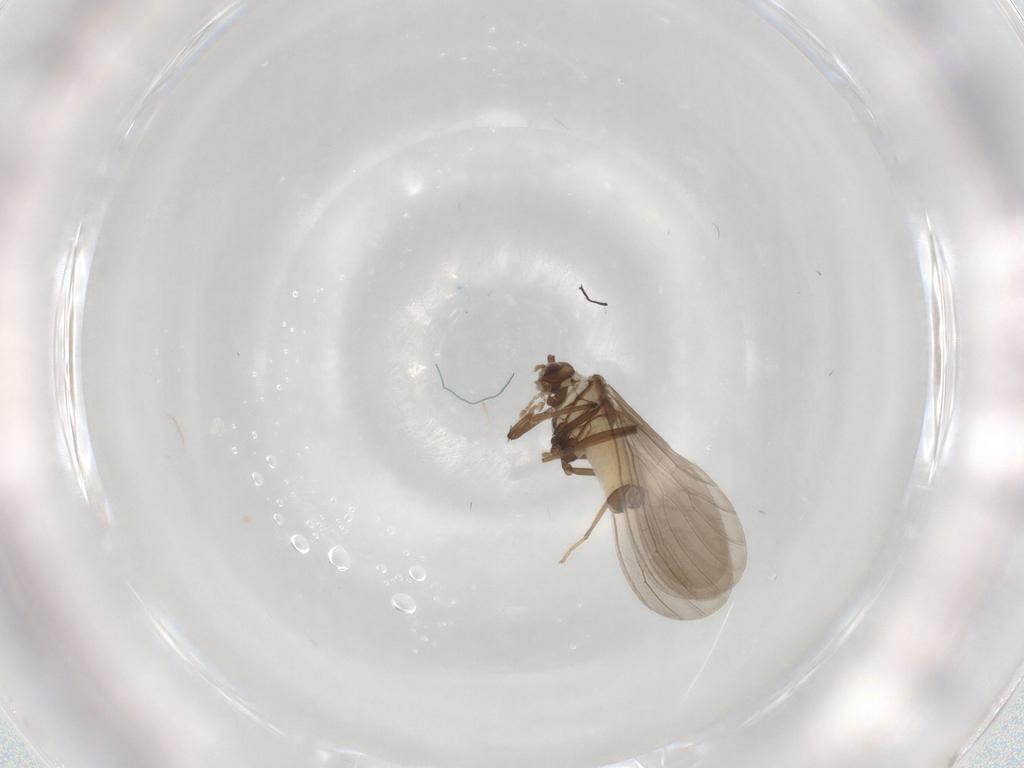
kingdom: Animalia
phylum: Arthropoda
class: Insecta
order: Neuroptera
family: Coniopterygidae
